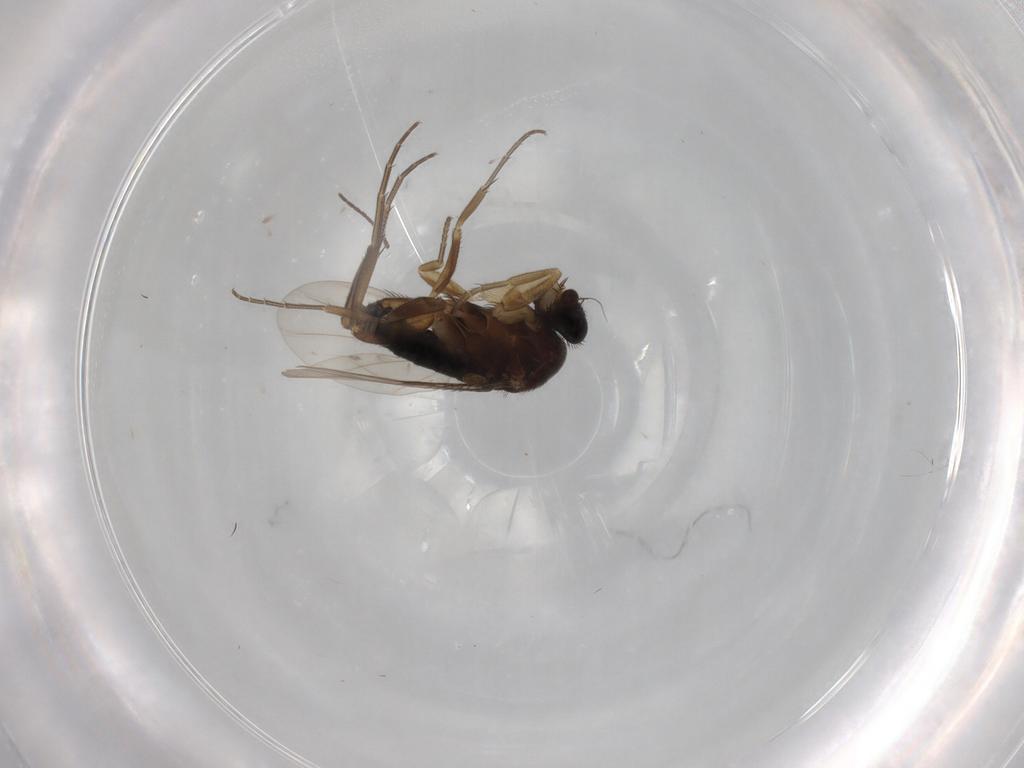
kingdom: Animalia
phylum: Arthropoda
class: Insecta
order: Diptera
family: Phoridae
